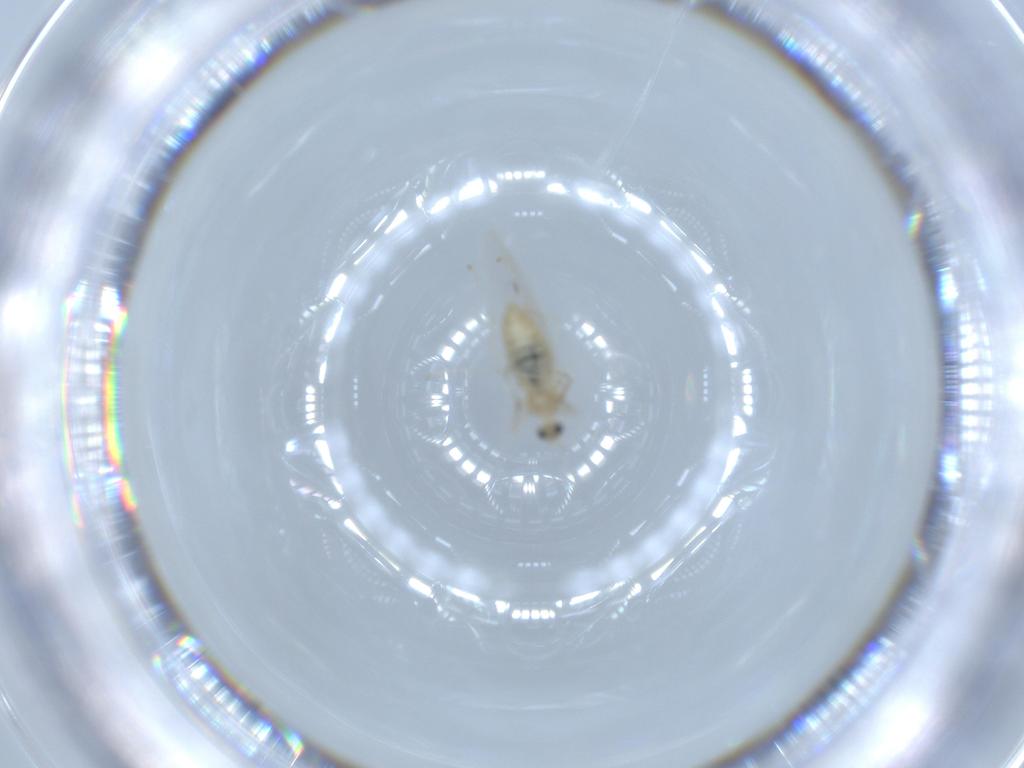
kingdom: Animalia
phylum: Arthropoda
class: Insecta
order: Diptera
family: Cecidomyiidae
